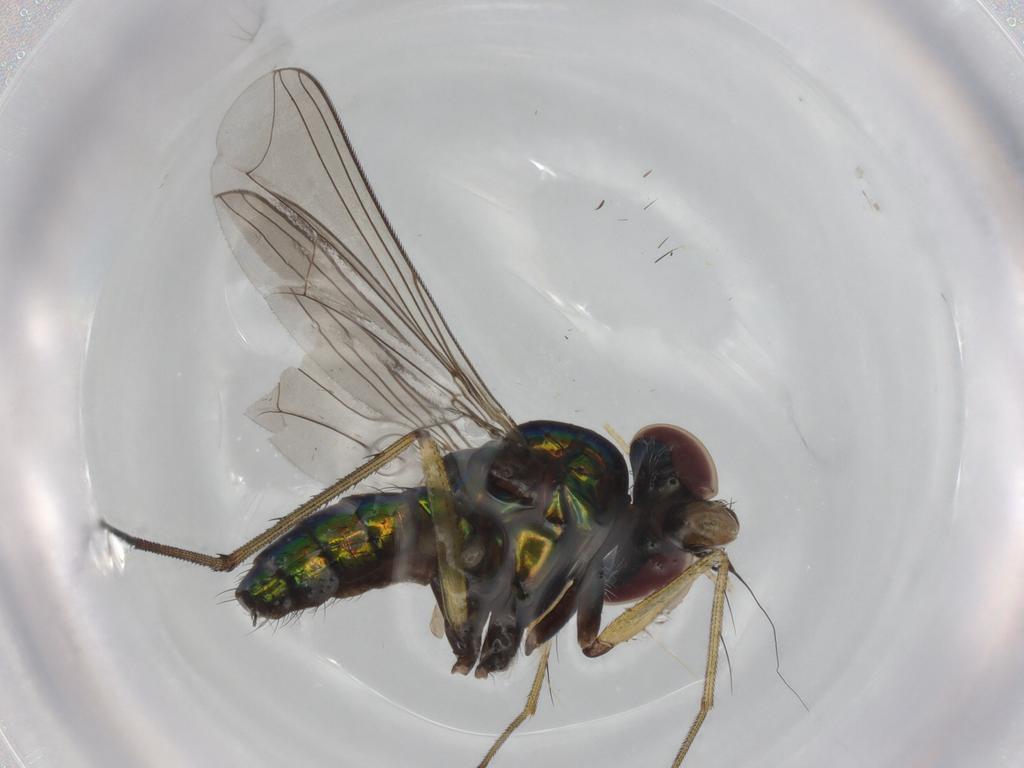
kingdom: Animalia
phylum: Arthropoda
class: Insecta
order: Diptera
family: Dolichopodidae
